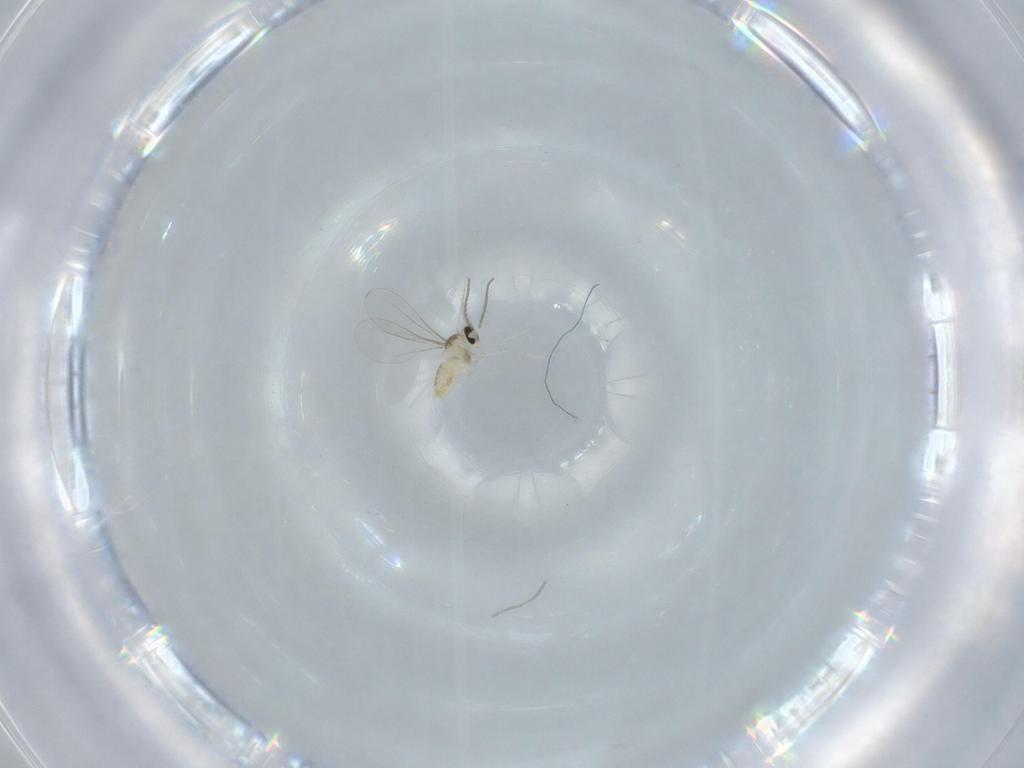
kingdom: Animalia
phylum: Arthropoda
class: Insecta
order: Diptera
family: Cecidomyiidae
